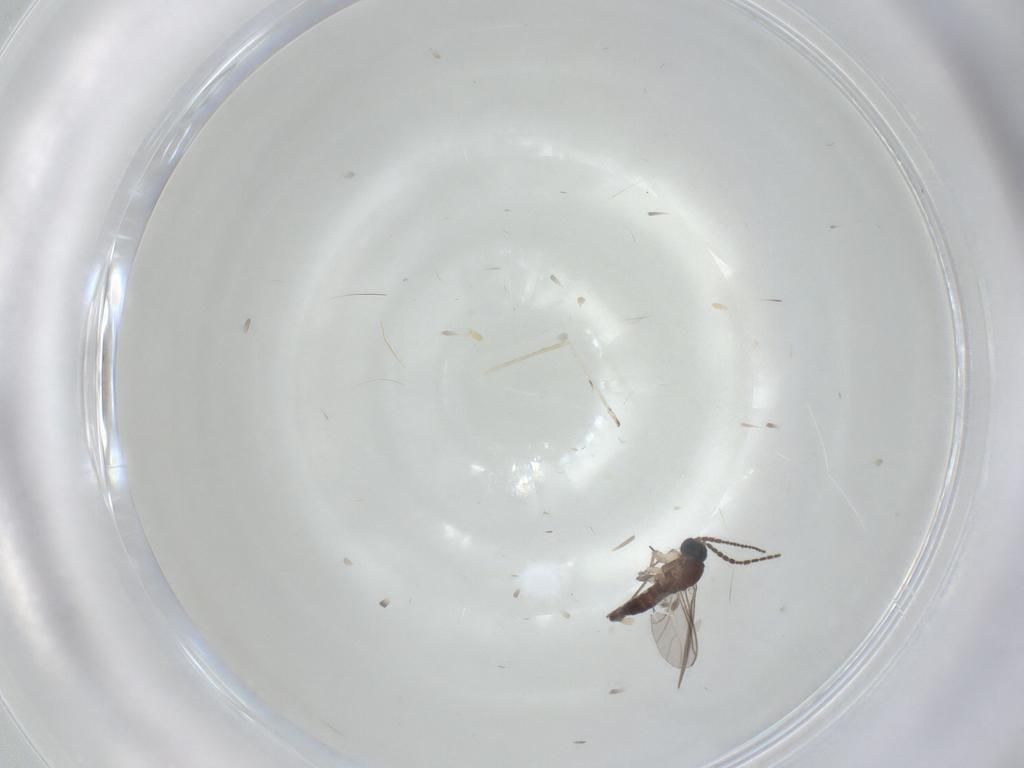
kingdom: Animalia
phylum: Arthropoda
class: Insecta
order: Diptera
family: Sciaridae
